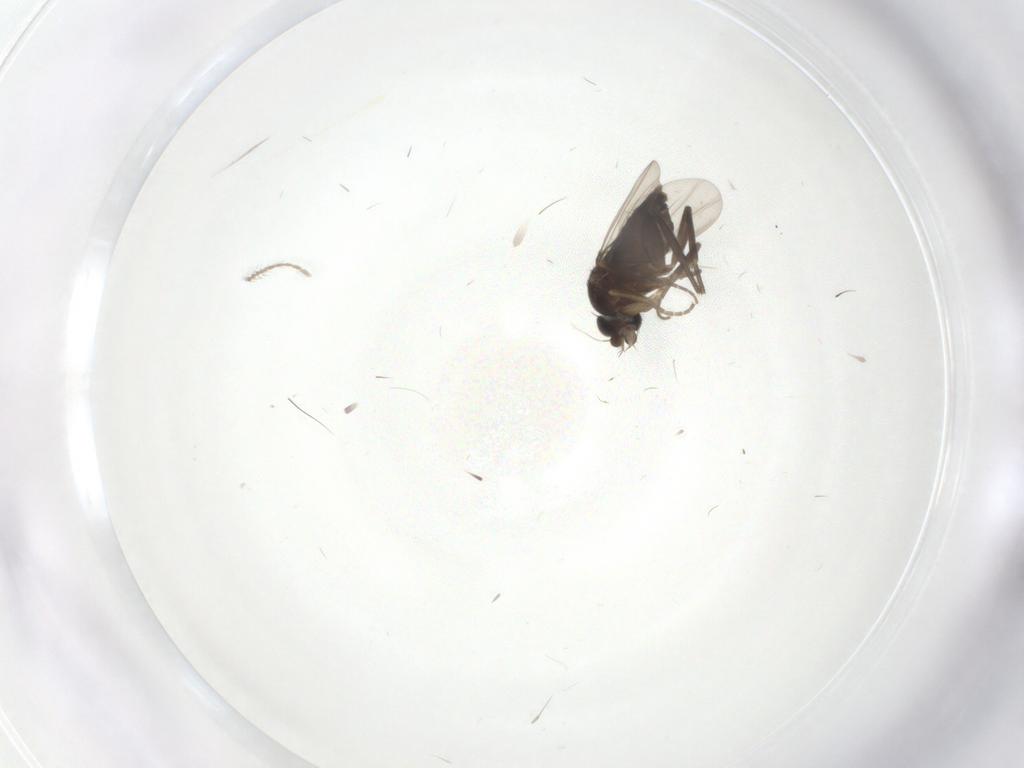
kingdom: Animalia
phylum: Arthropoda
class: Insecta
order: Diptera
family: Phoridae
